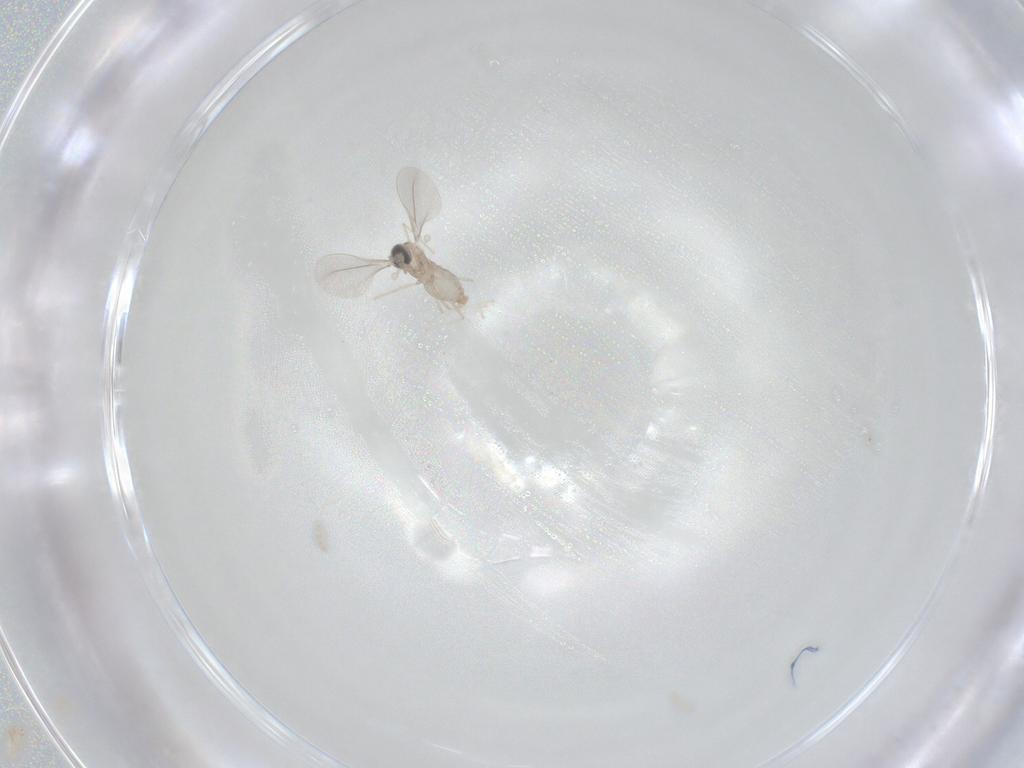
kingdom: Animalia
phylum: Arthropoda
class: Insecta
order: Diptera
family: Cecidomyiidae
